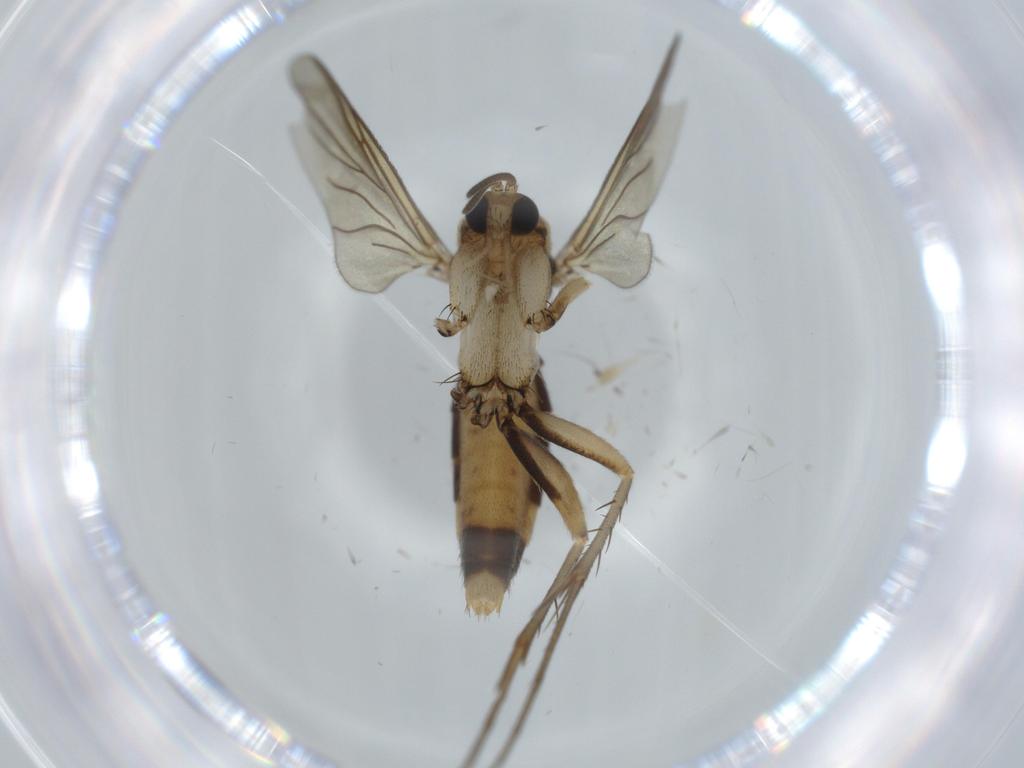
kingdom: Animalia
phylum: Arthropoda
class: Insecta
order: Diptera
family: Mycetophilidae
